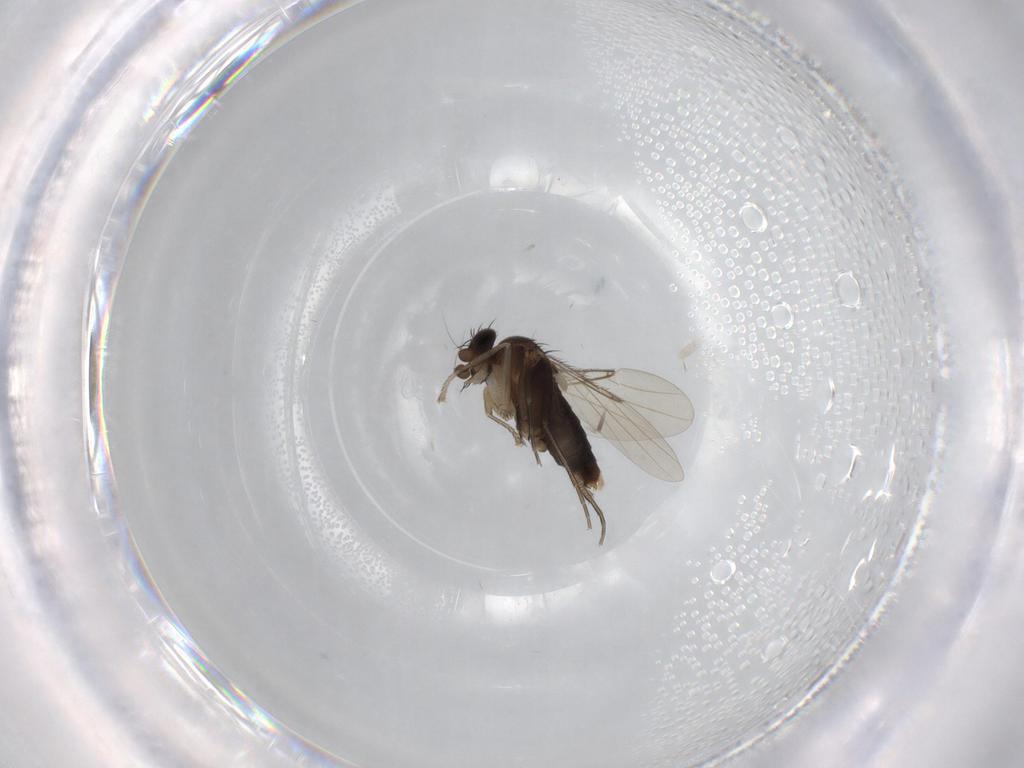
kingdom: Animalia
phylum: Arthropoda
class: Insecta
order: Diptera
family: Phoridae
